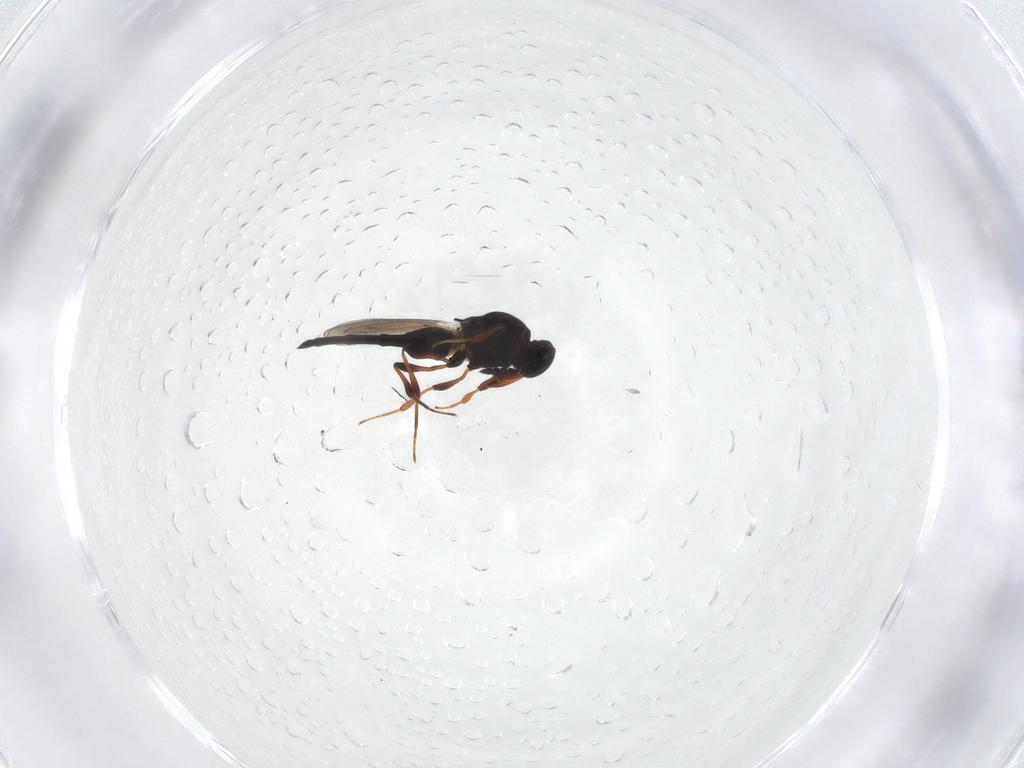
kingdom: Animalia
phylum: Arthropoda
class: Insecta
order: Hymenoptera
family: Platygastridae
